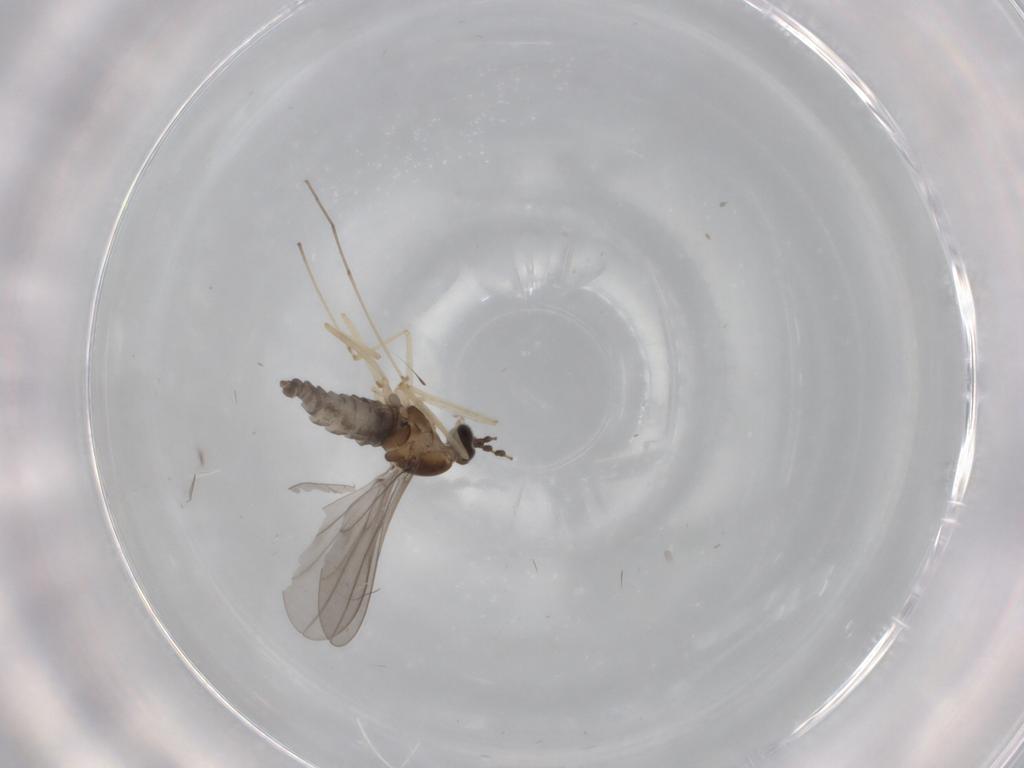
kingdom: Animalia
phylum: Arthropoda
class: Insecta
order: Diptera
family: Cecidomyiidae
